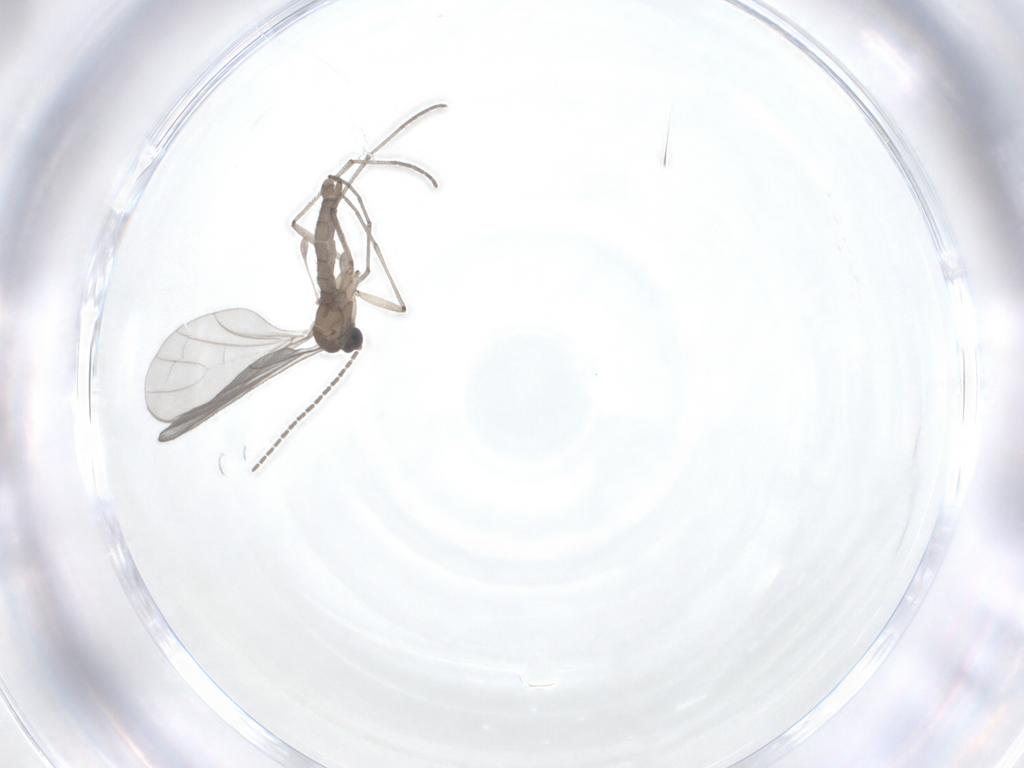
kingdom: Animalia
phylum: Arthropoda
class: Insecta
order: Diptera
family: Sciaridae
